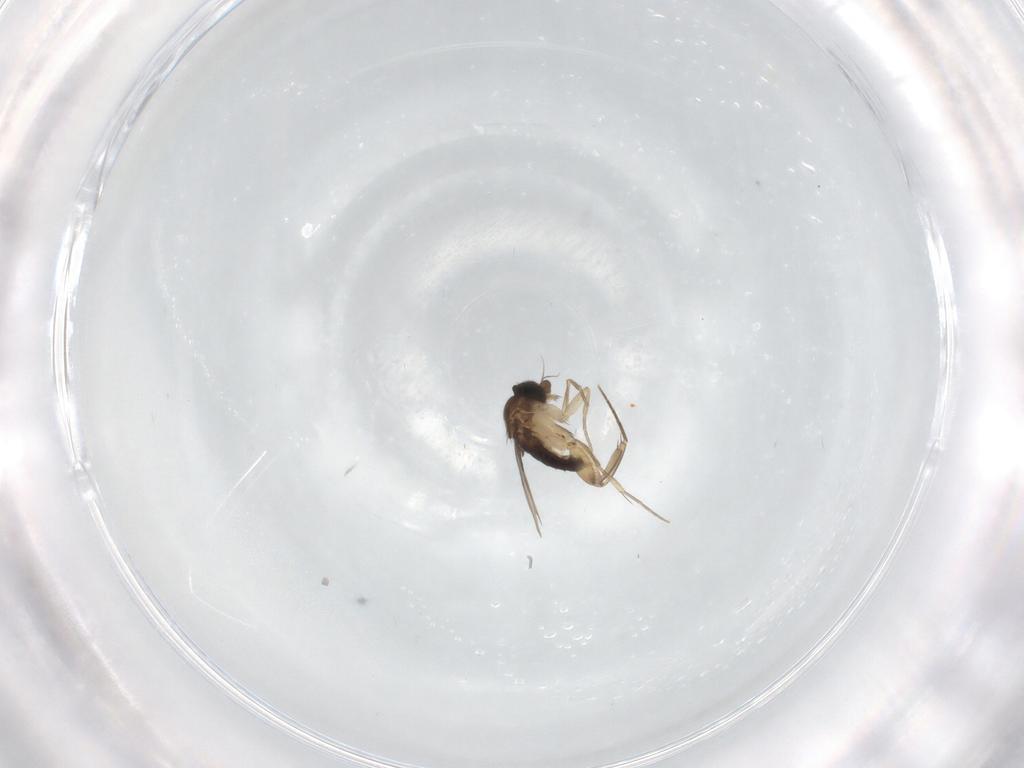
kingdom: Animalia
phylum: Arthropoda
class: Insecta
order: Diptera
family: Phoridae
